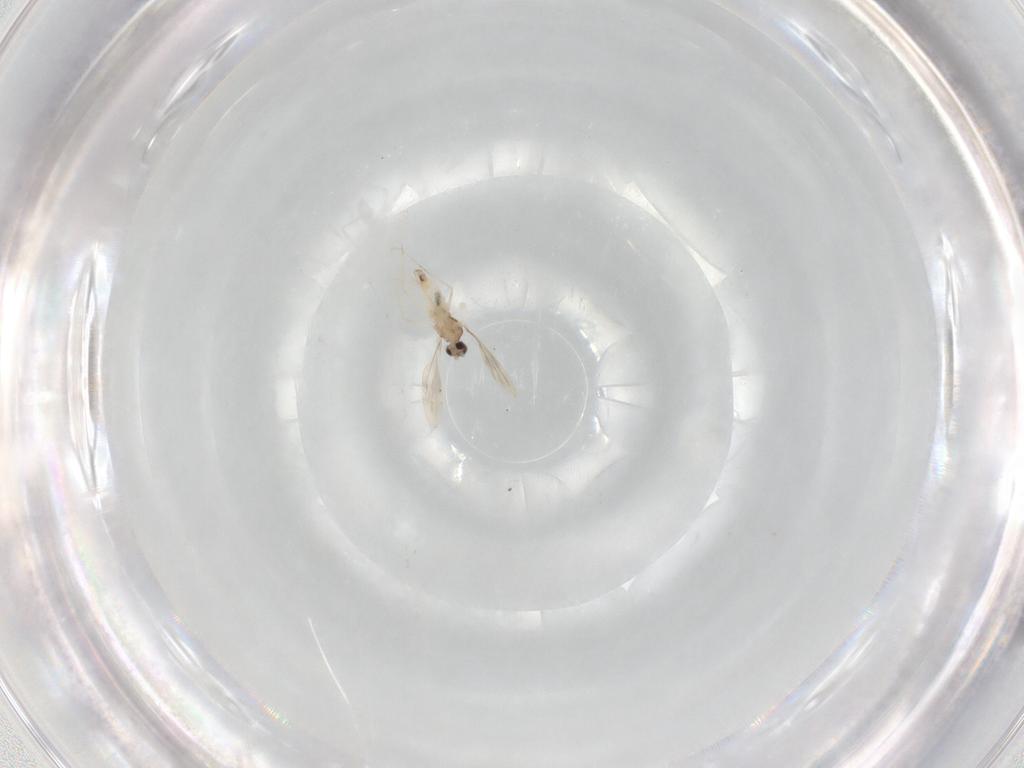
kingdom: Animalia
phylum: Arthropoda
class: Insecta
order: Diptera
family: Cecidomyiidae
